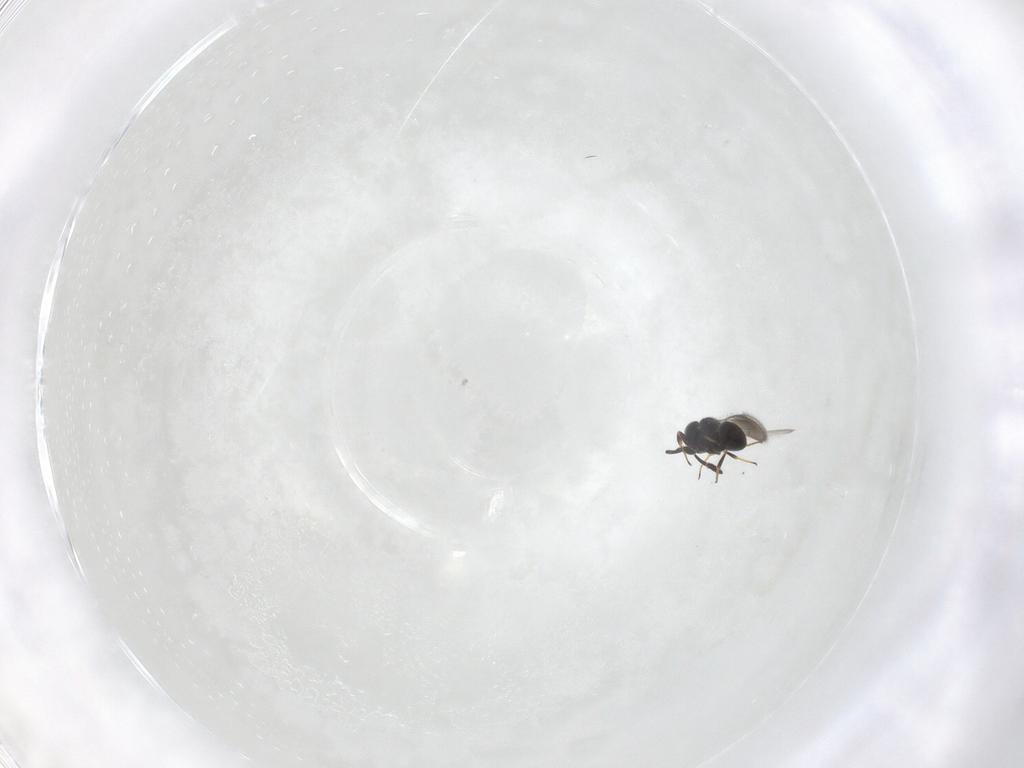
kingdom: Animalia
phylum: Arthropoda
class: Insecta
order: Hymenoptera
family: Scelionidae
